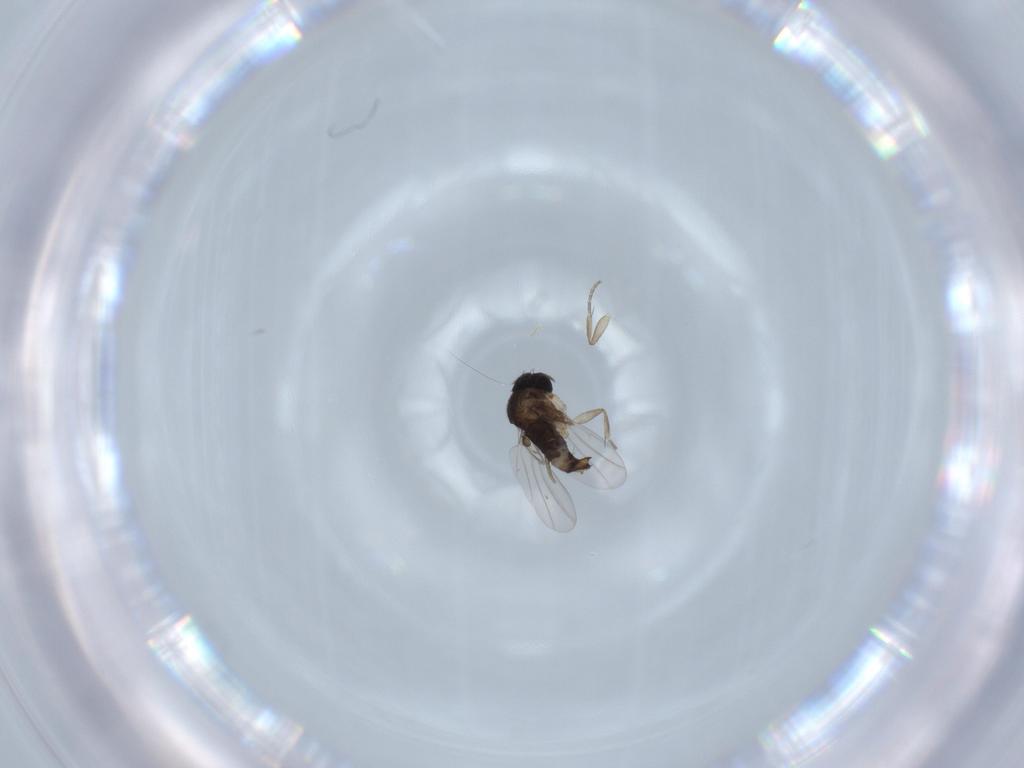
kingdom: Animalia
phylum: Arthropoda
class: Insecta
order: Diptera
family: Phoridae
